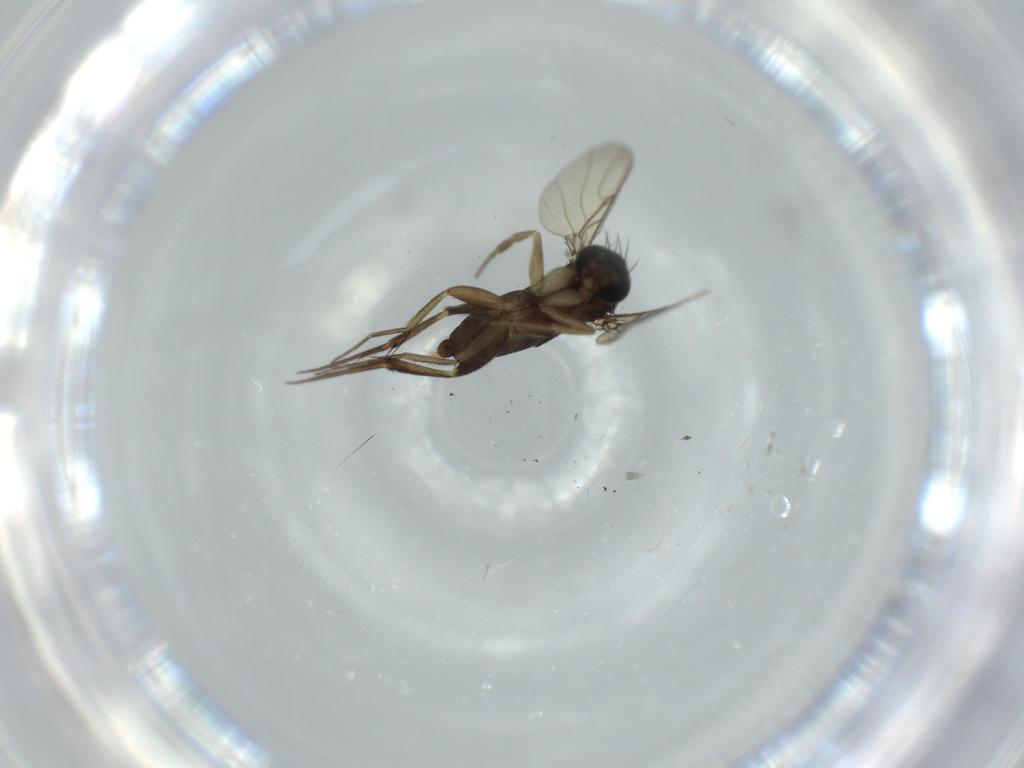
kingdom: Animalia
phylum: Arthropoda
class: Insecta
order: Diptera
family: Phoridae
